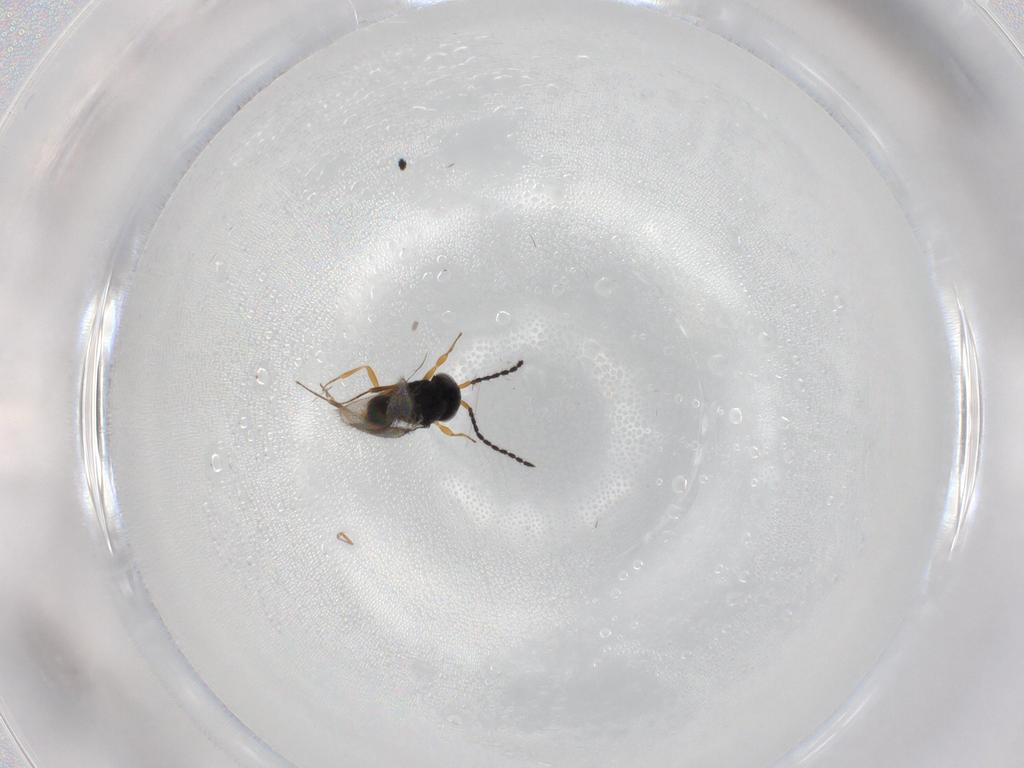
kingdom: Animalia
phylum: Arthropoda
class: Insecta
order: Hymenoptera
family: Scelionidae
